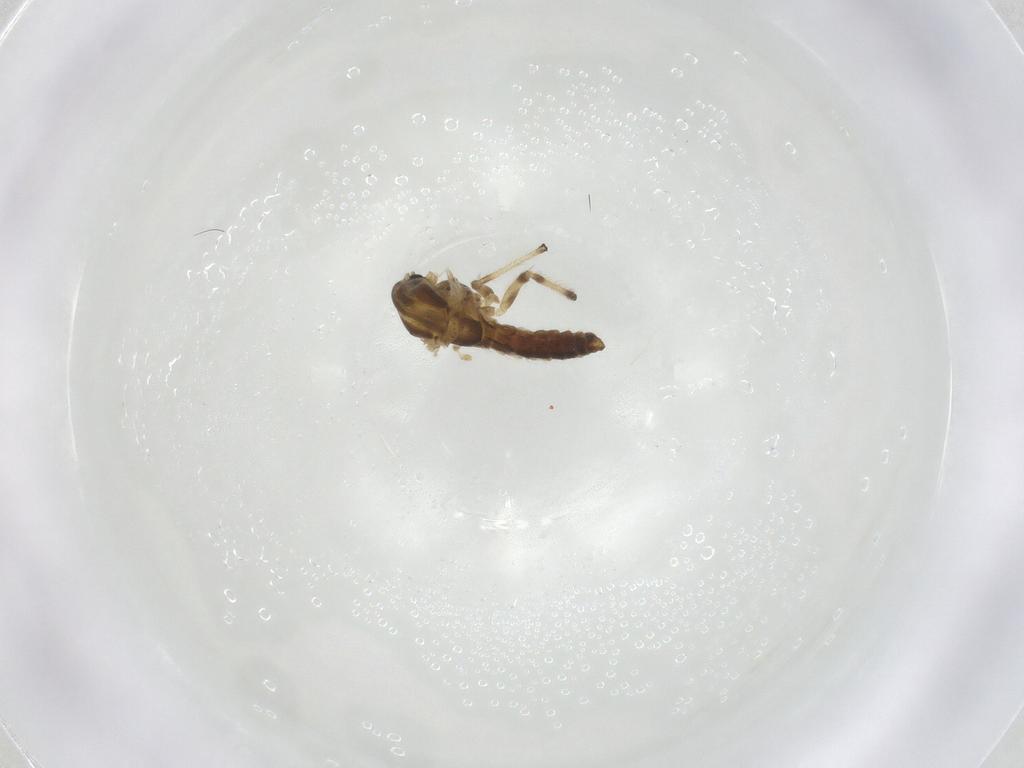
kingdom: Animalia
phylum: Arthropoda
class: Insecta
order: Diptera
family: Chironomidae
